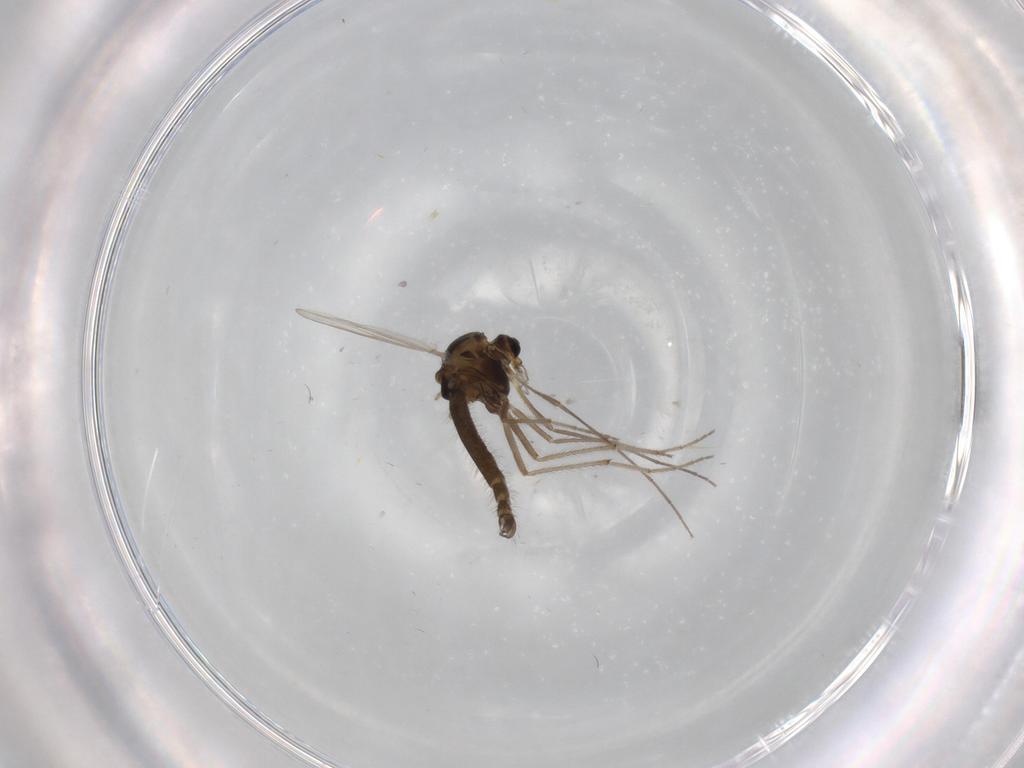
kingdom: Animalia
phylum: Arthropoda
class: Insecta
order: Diptera
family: Chironomidae
